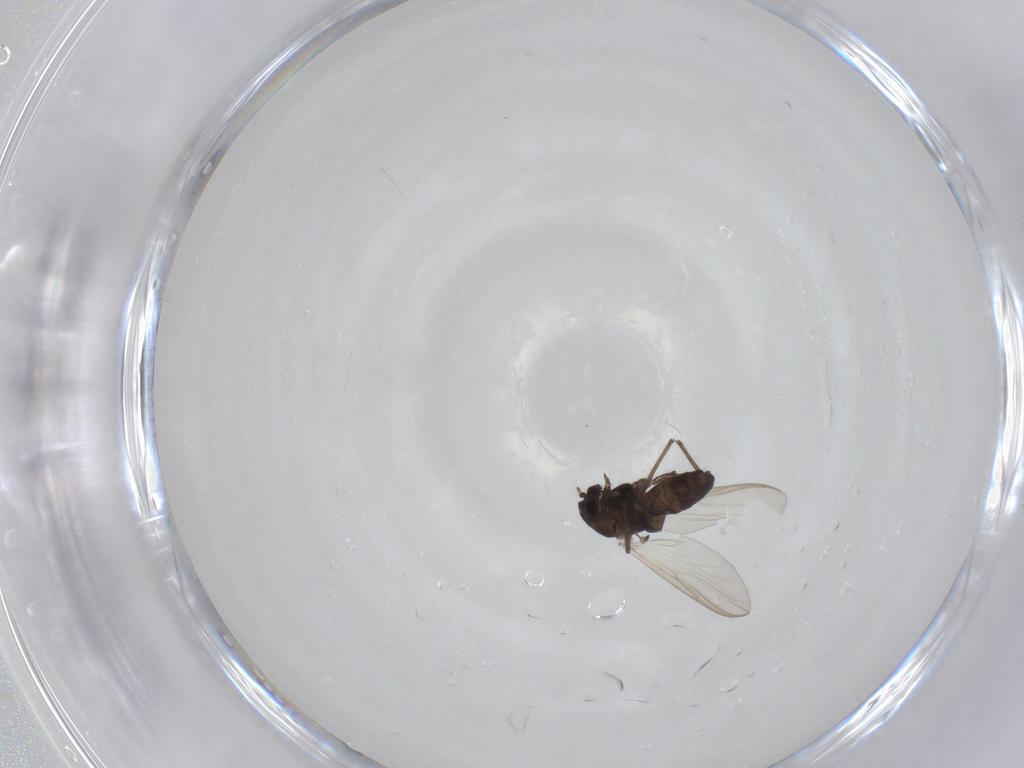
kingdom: Animalia
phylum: Arthropoda
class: Insecta
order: Diptera
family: Chironomidae
